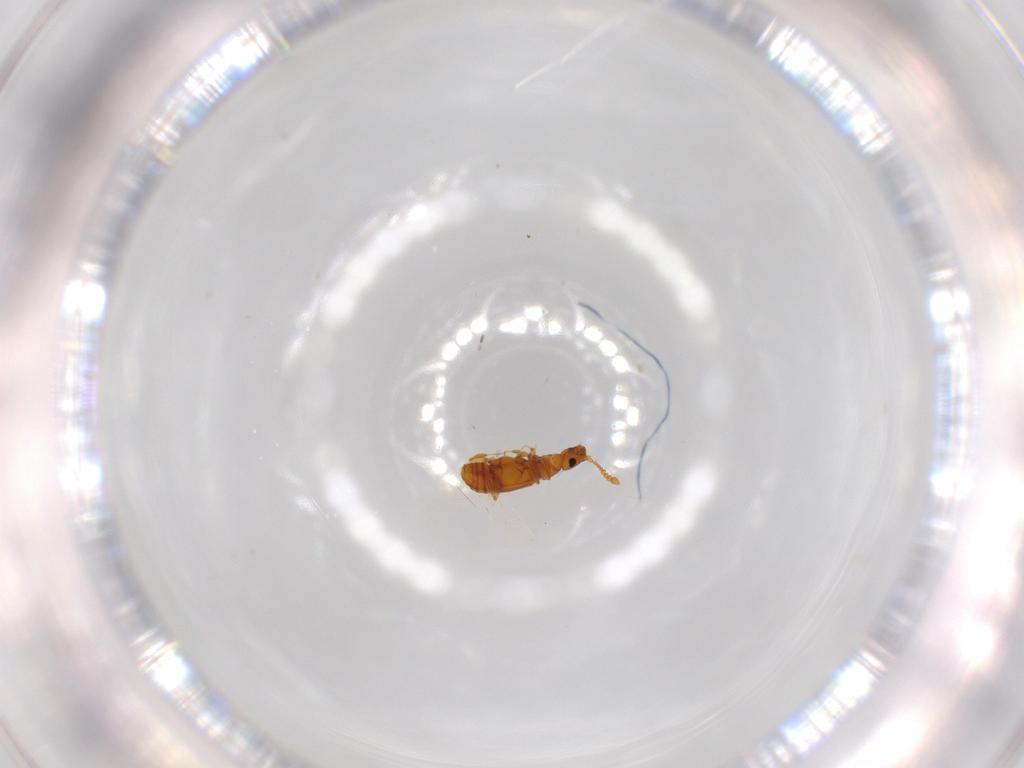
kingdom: Animalia
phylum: Arthropoda
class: Insecta
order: Coleoptera
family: Staphylinidae
